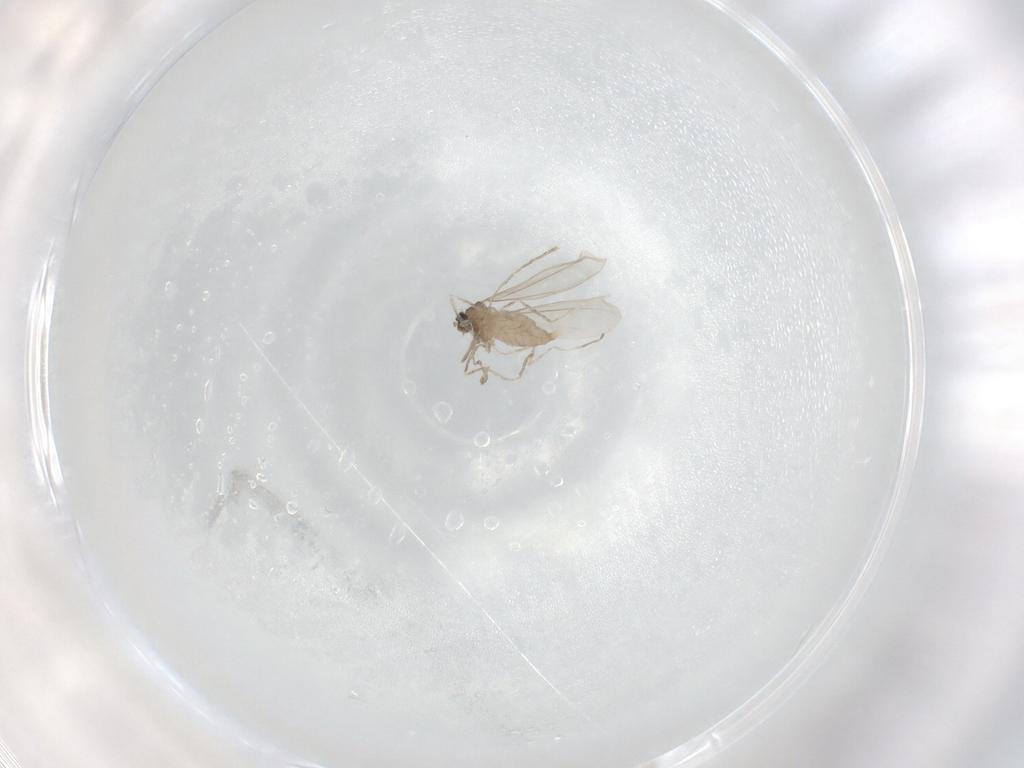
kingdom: Animalia
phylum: Arthropoda
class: Insecta
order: Diptera
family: Cecidomyiidae
